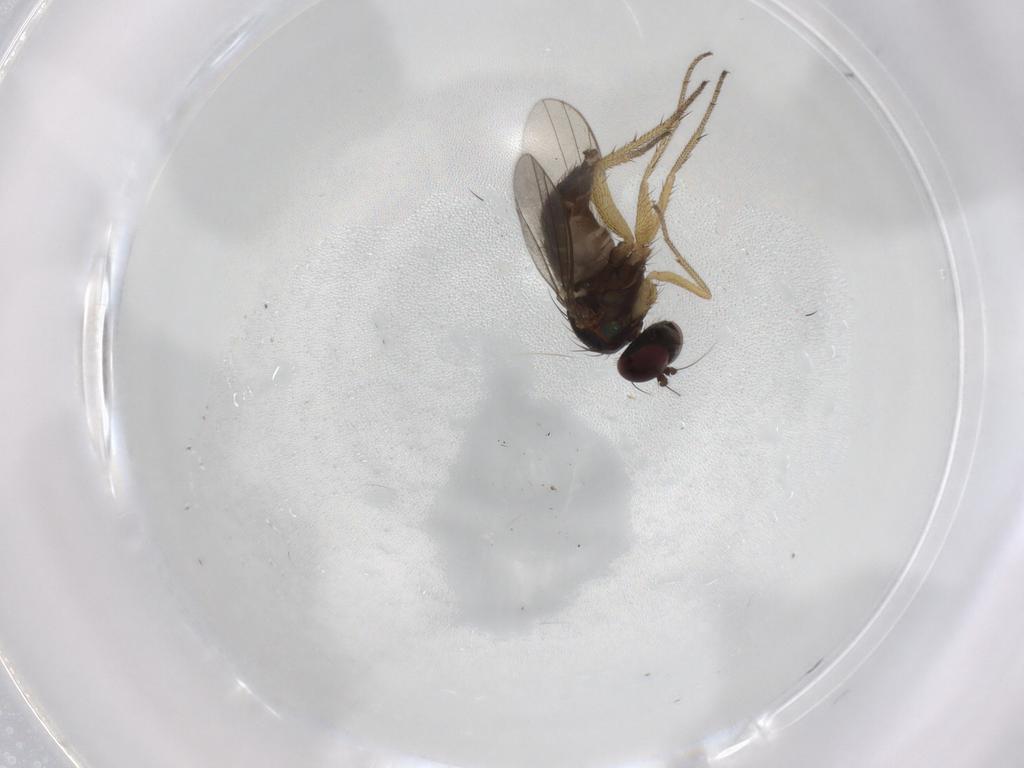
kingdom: Animalia
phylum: Arthropoda
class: Insecta
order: Diptera
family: Dolichopodidae
